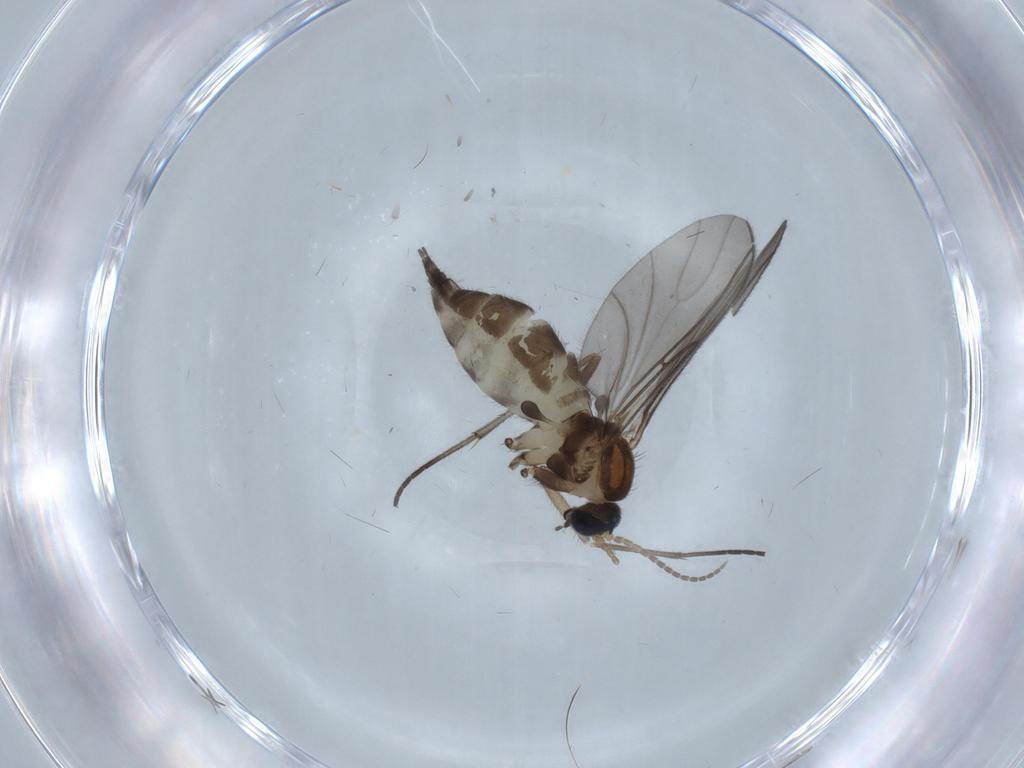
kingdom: Animalia
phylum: Arthropoda
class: Insecta
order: Diptera
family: Sciaridae
